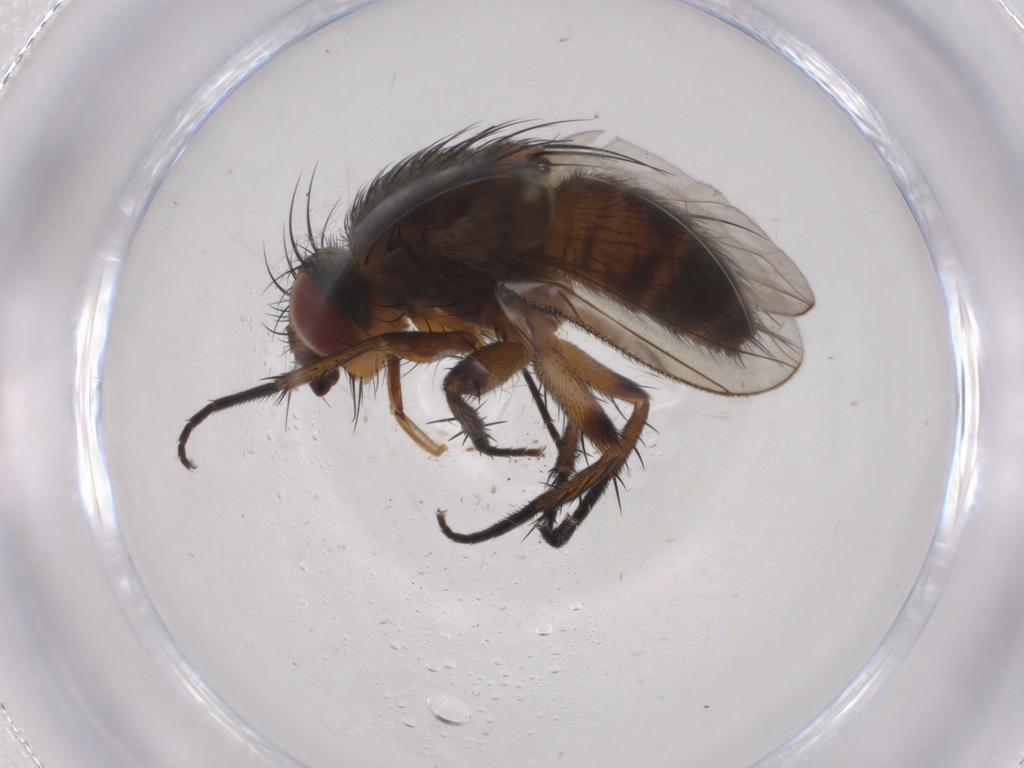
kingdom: Animalia
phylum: Arthropoda
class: Insecta
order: Diptera
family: Tachinidae
